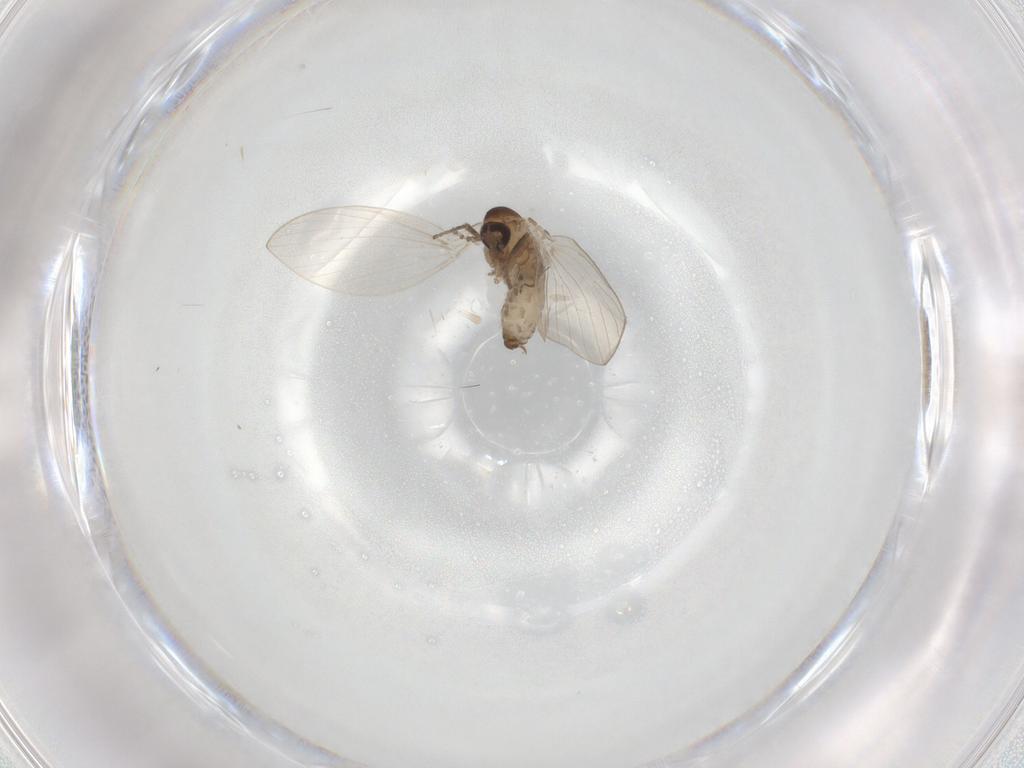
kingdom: Animalia
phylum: Arthropoda
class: Insecta
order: Diptera
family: Psychodidae
